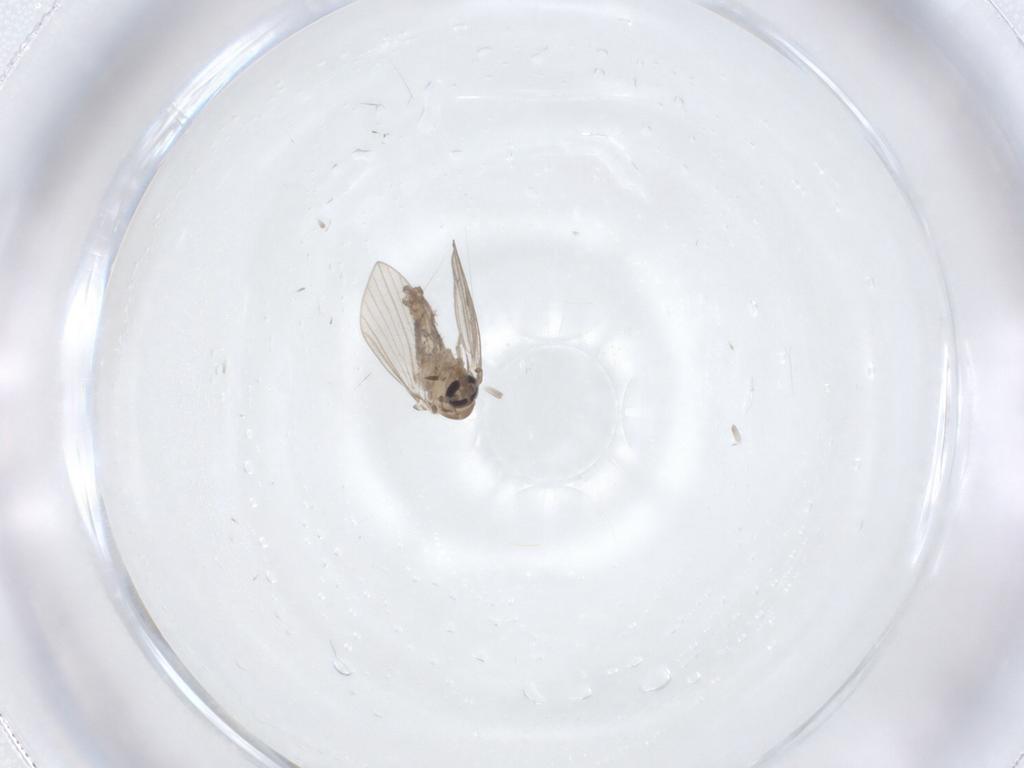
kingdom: Animalia
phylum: Arthropoda
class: Insecta
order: Diptera
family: Psychodidae
